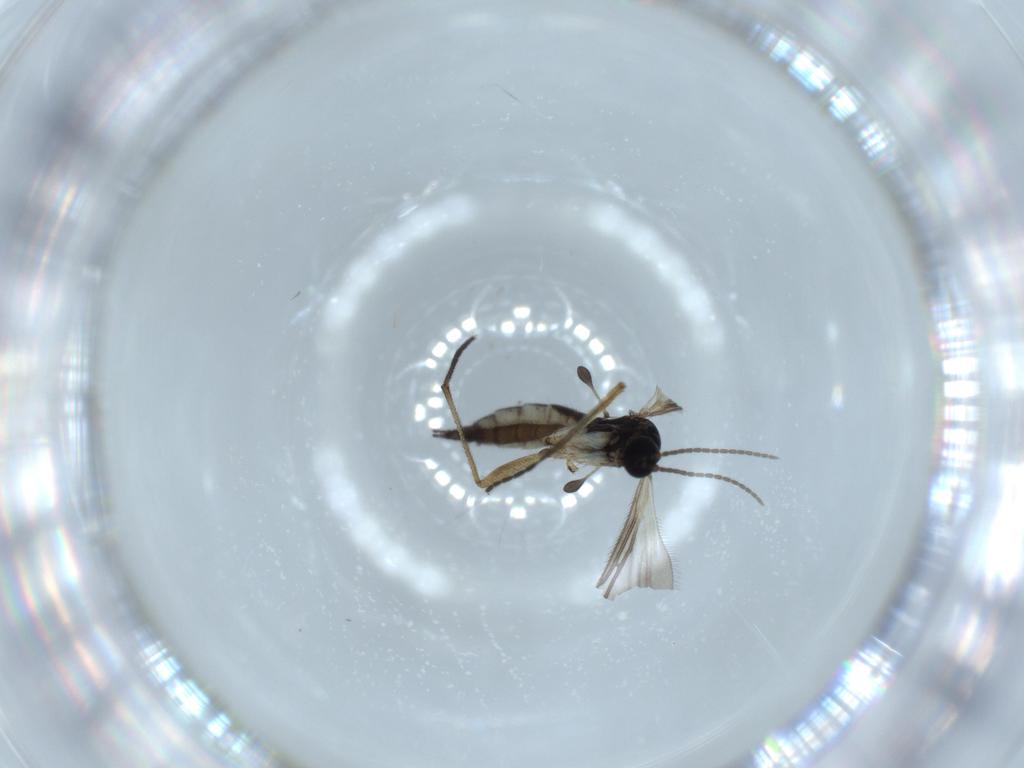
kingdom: Animalia
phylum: Arthropoda
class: Insecta
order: Diptera
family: Sciaridae
